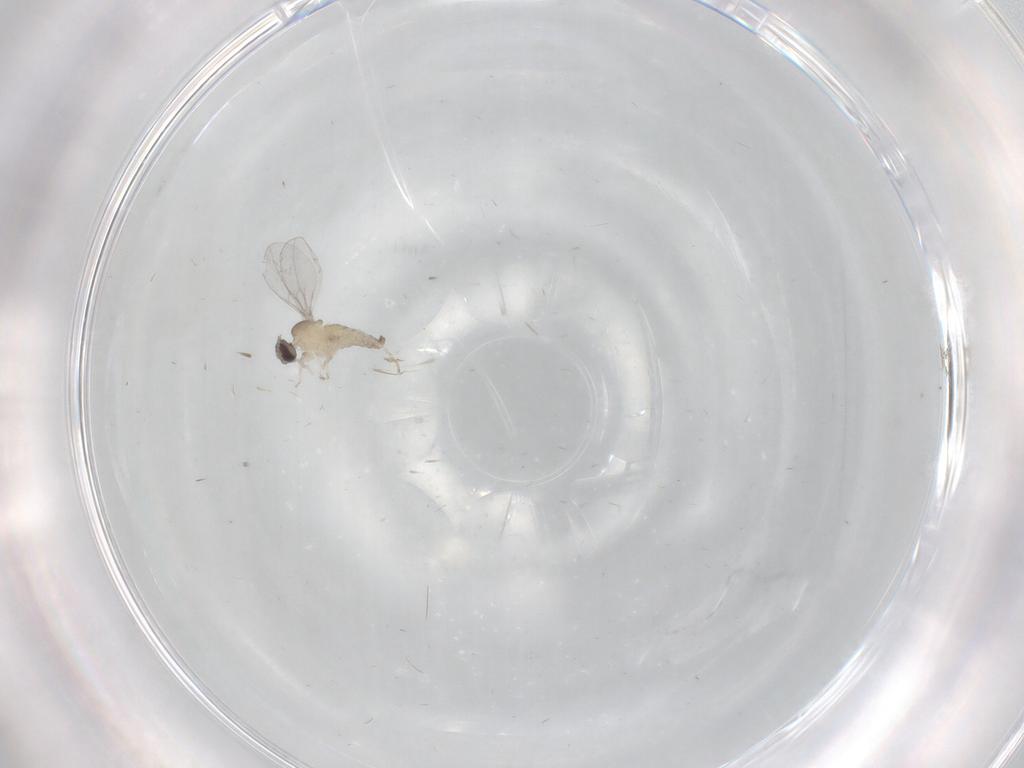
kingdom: Animalia
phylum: Arthropoda
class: Insecta
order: Diptera
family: Cecidomyiidae
